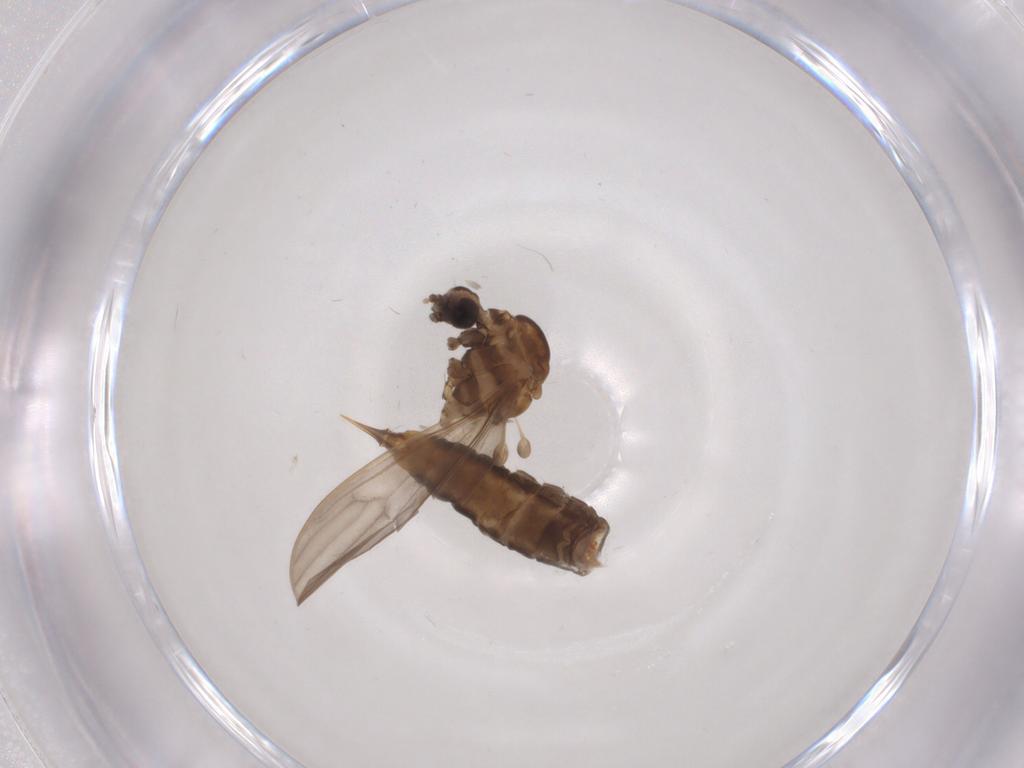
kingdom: Animalia
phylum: Arthropoda
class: Insecta
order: Diptera
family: Limoniidae
